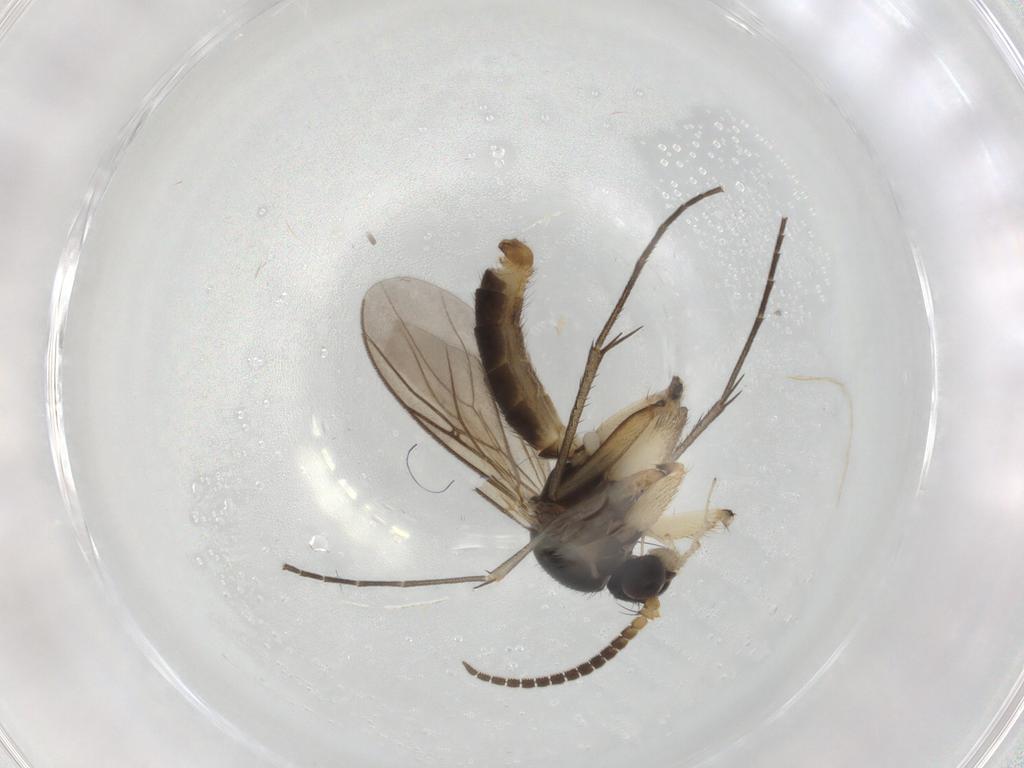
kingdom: Animalia
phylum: Arthropoda
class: Insecta
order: Diptera
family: Mycetophilidae
